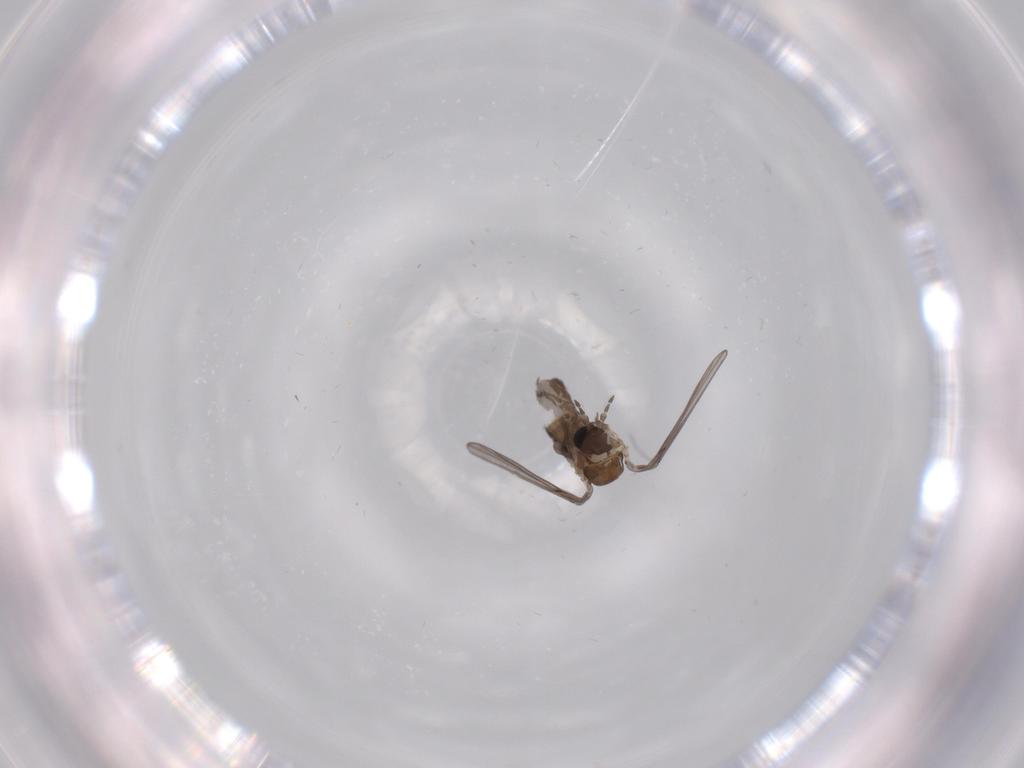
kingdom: Animalia
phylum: Arthropoda
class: Insecta
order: Diptera
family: Psychodidae
